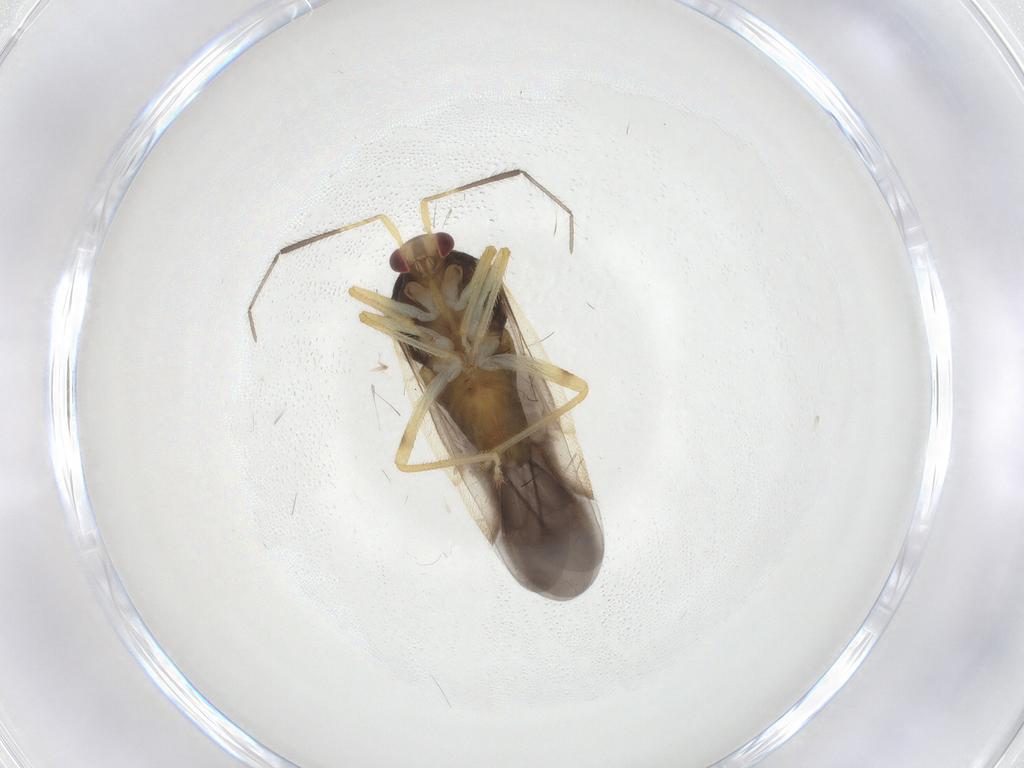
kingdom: Animalia
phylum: Arthropoda
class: Insecta
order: Hemiptera
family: Miridae
